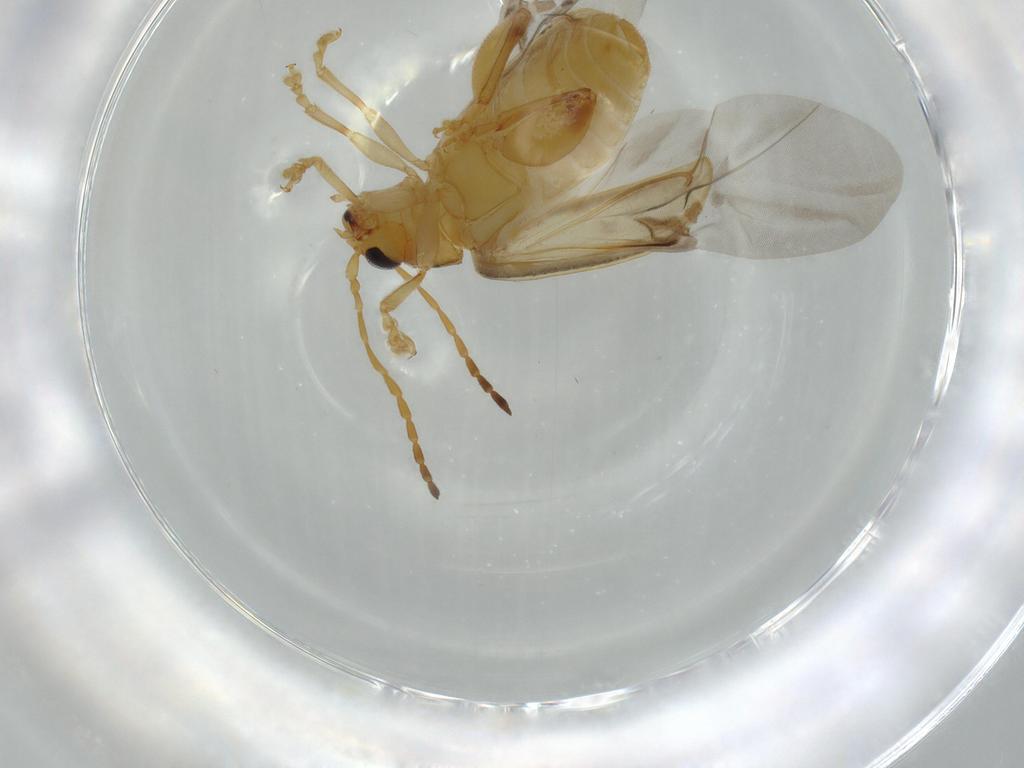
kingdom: Animalia
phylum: Arthropoda
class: Insecta
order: Coleoptera
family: Chrysomelidae
